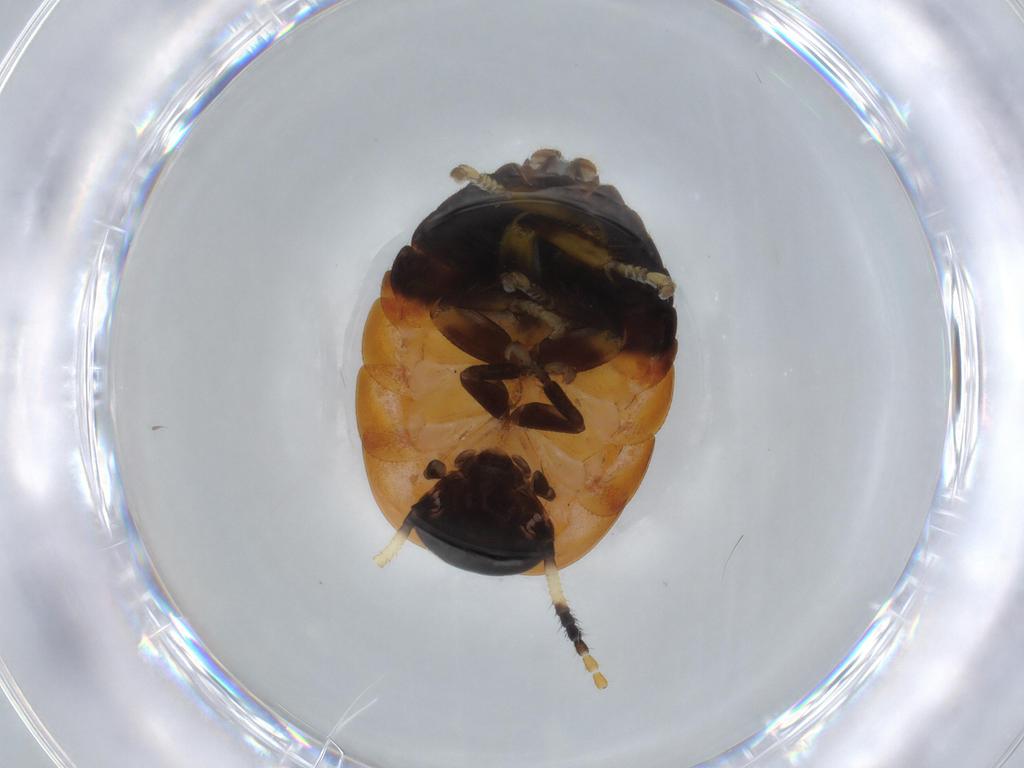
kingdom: Animalia
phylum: Arthropoda
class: Insecta
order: Blattodea
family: Blaberidae
